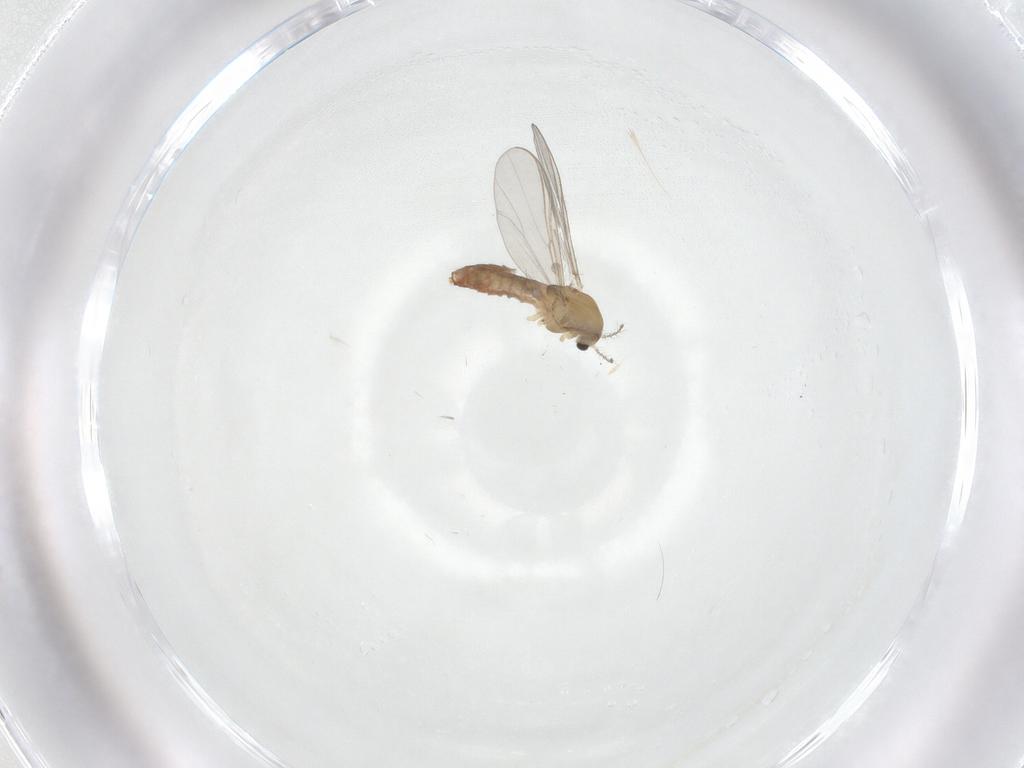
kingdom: Animalia
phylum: Arthropoda
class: Insecta
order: Diptera
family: Chironomidae
